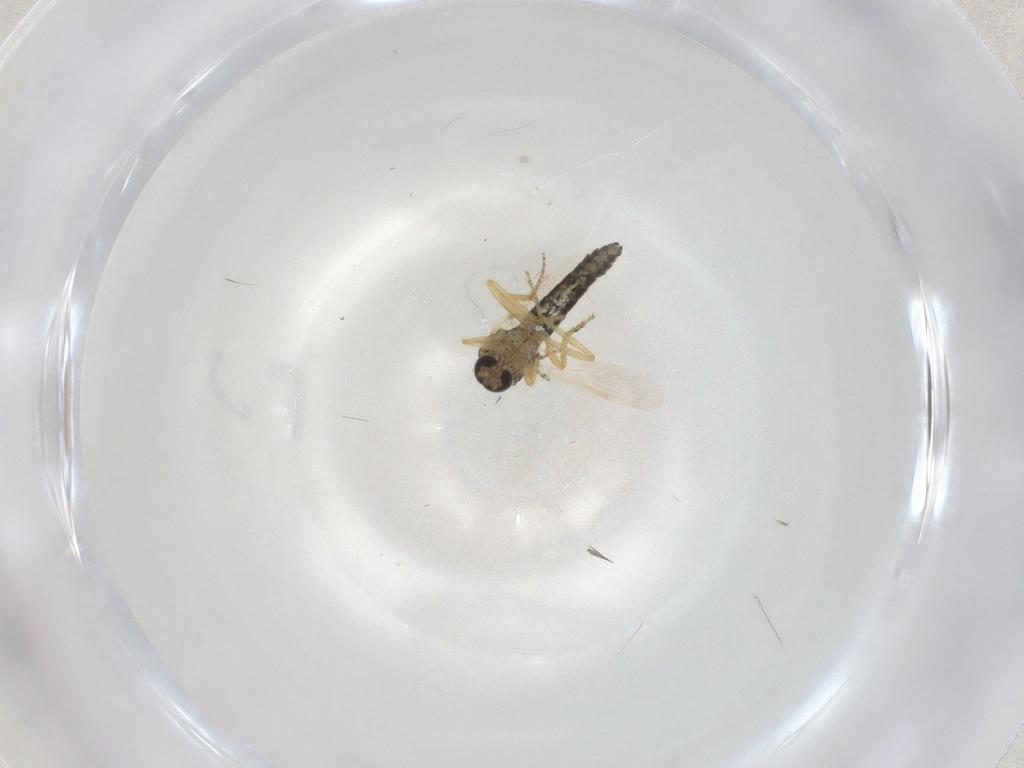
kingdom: Animalia
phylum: Arthropoda
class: Insecta
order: Diptera
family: Ceratopogonidae
